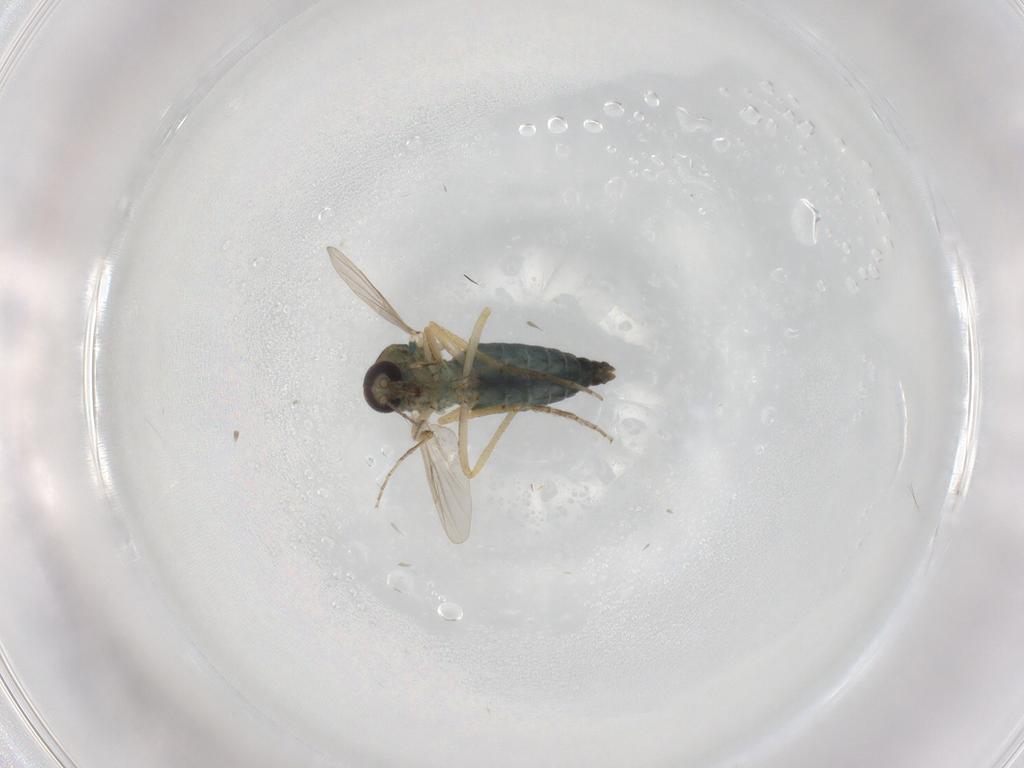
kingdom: Animalia
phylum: Arthropoda
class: Insecta
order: Diptera
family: Ceratopogonidae
